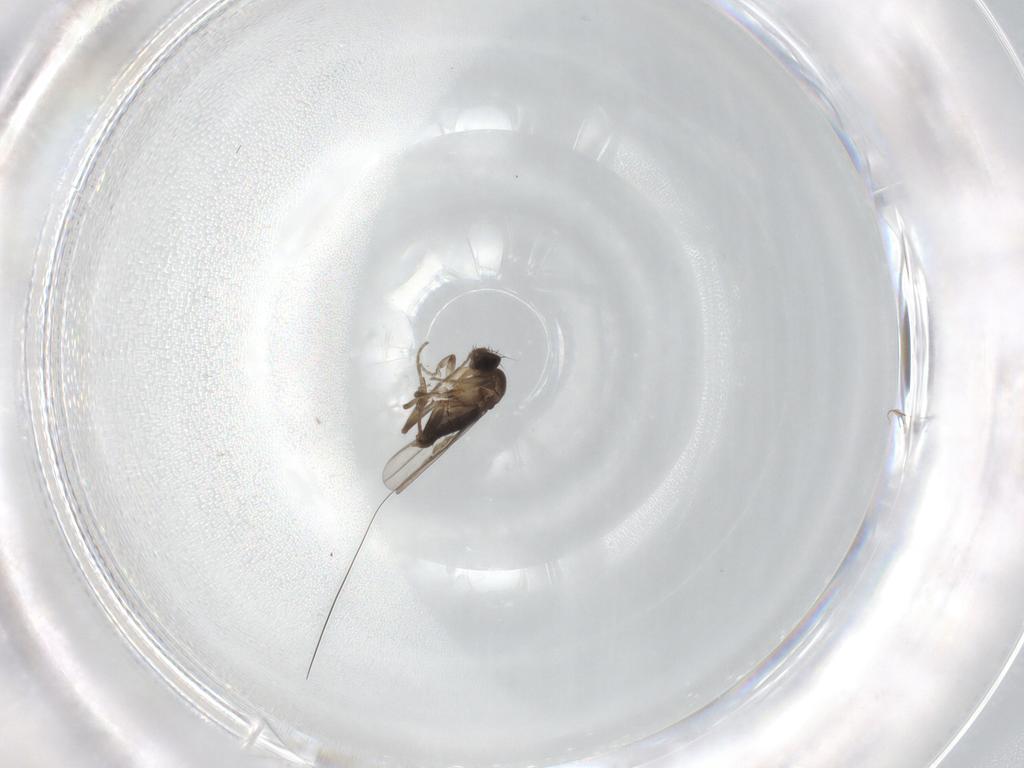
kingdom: Animalia
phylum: Arthropoda
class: Insecta
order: Diptera
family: Phoridae
